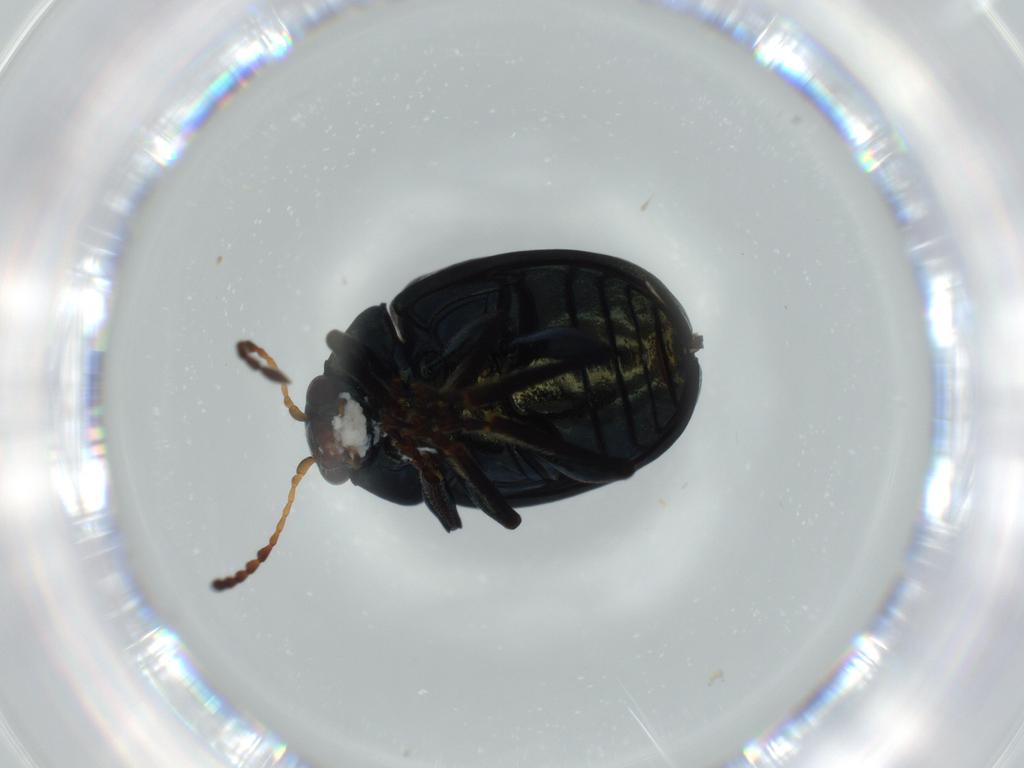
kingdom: Animalia
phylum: Arthropoda
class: Insecta
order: Coleoptera
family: Chrysomelidae
